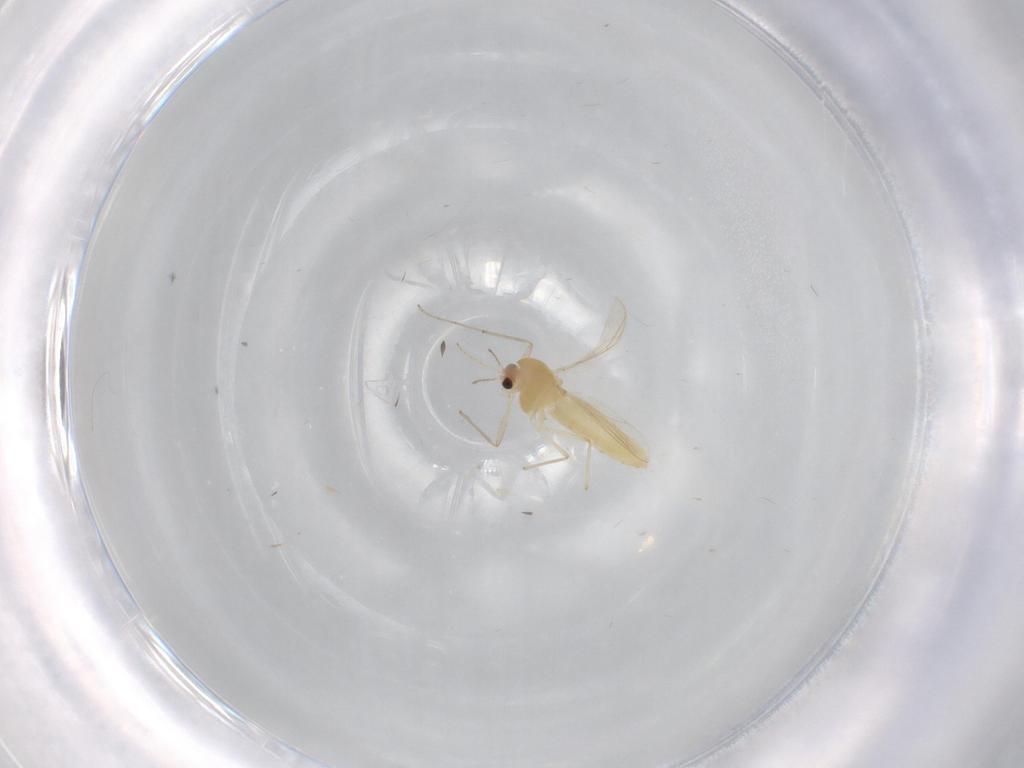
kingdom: Animalia
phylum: Arthropoda
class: Insecta
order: Diptera
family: Chironomidae
